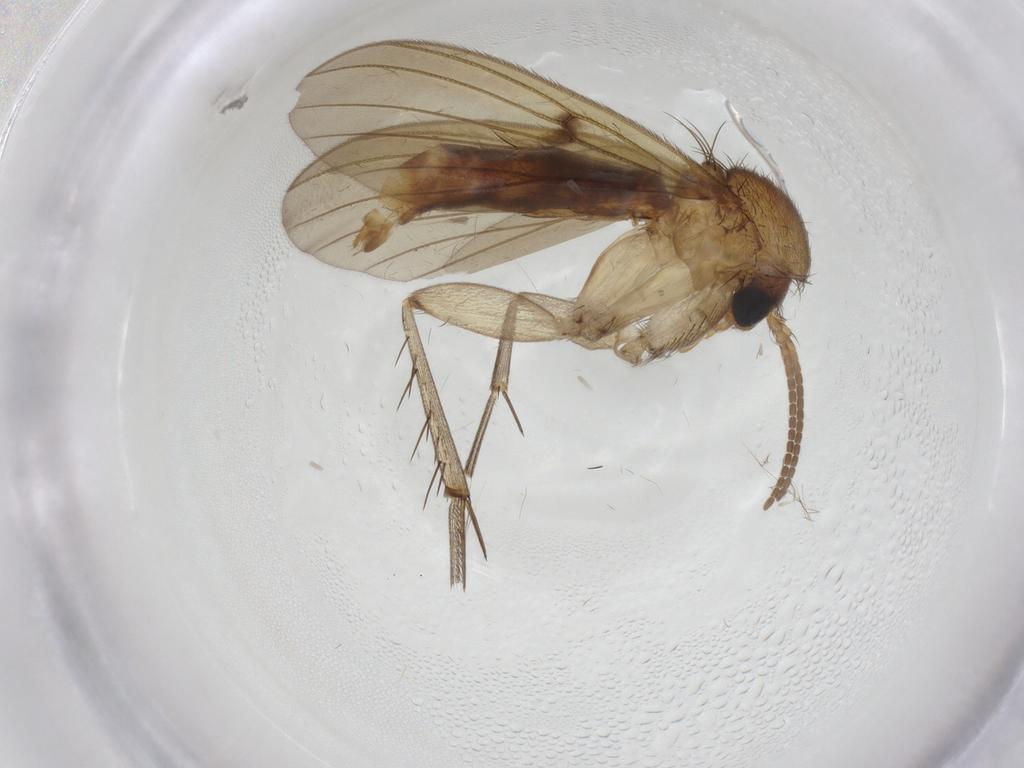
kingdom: Animalia
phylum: Arthropoda
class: Insecta
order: Diptera
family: Mycetophilidae
